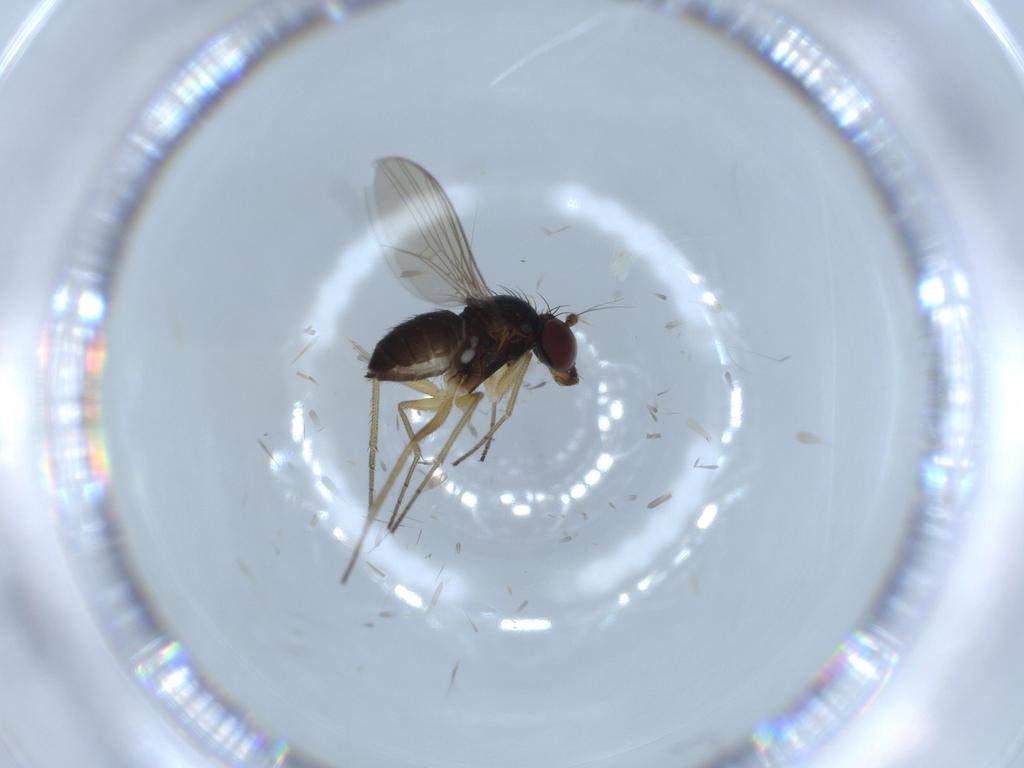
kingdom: Animalia
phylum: Arthropoda
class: Insecta
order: Diptera
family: Dolichopodidae
